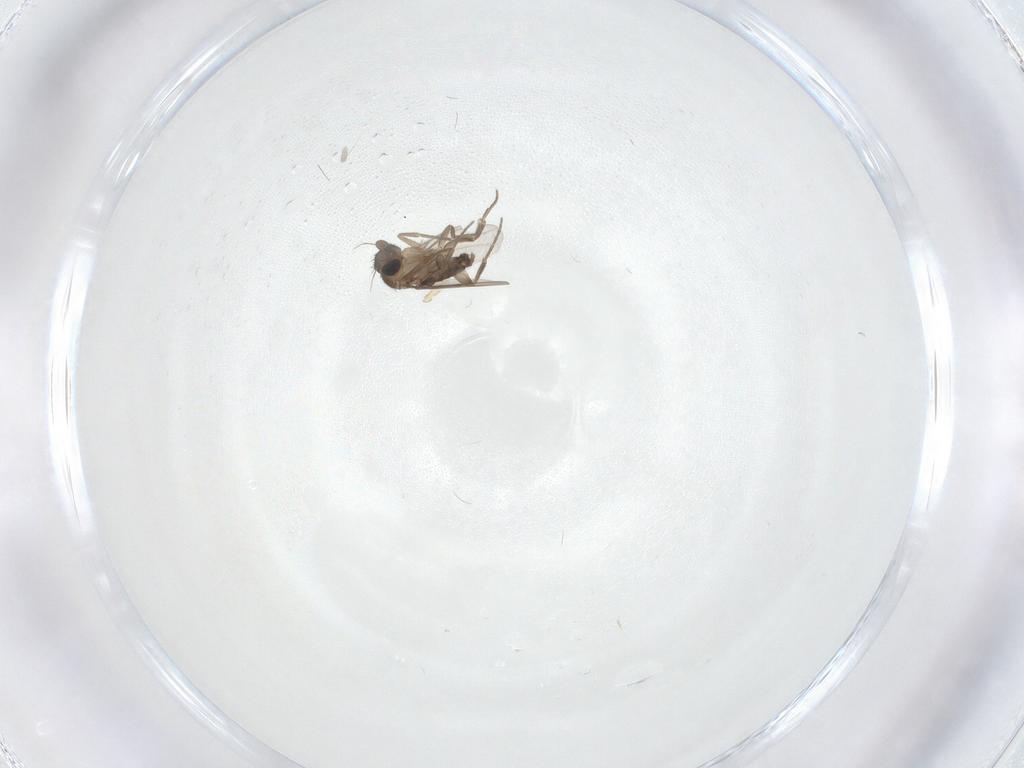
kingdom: Animalia
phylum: Arthropoda
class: Insecta
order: Diptera
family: Phoridae
